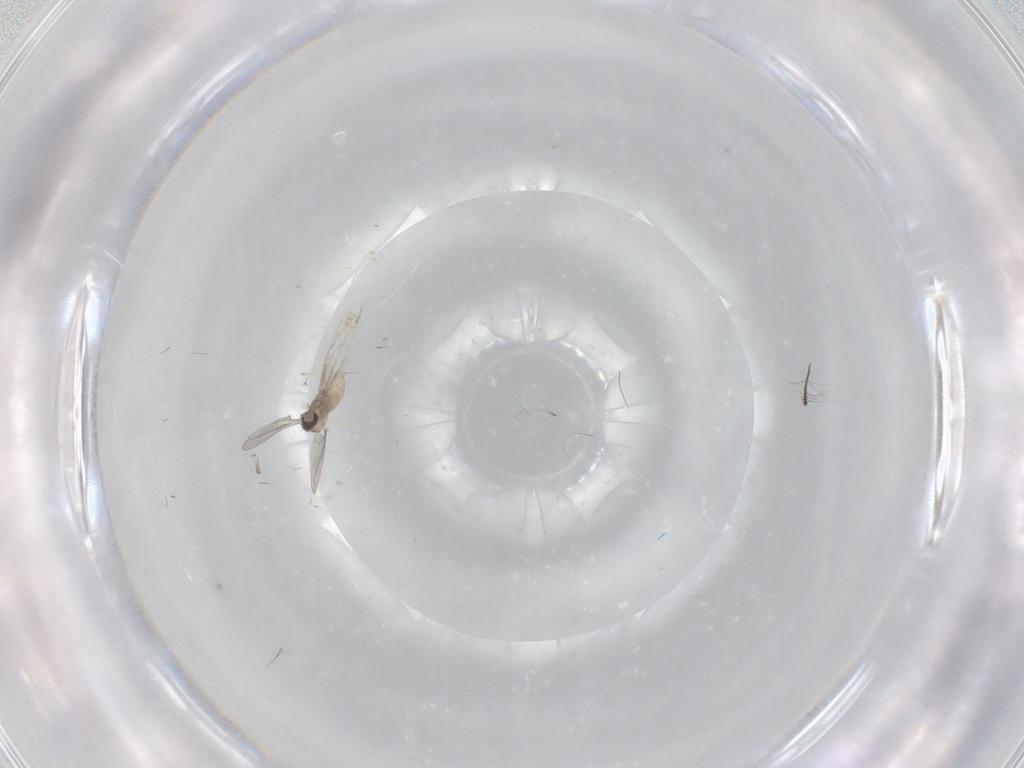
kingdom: Animalia
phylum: Arthropoda
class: Insecta
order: Diptera
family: Chironomidae
